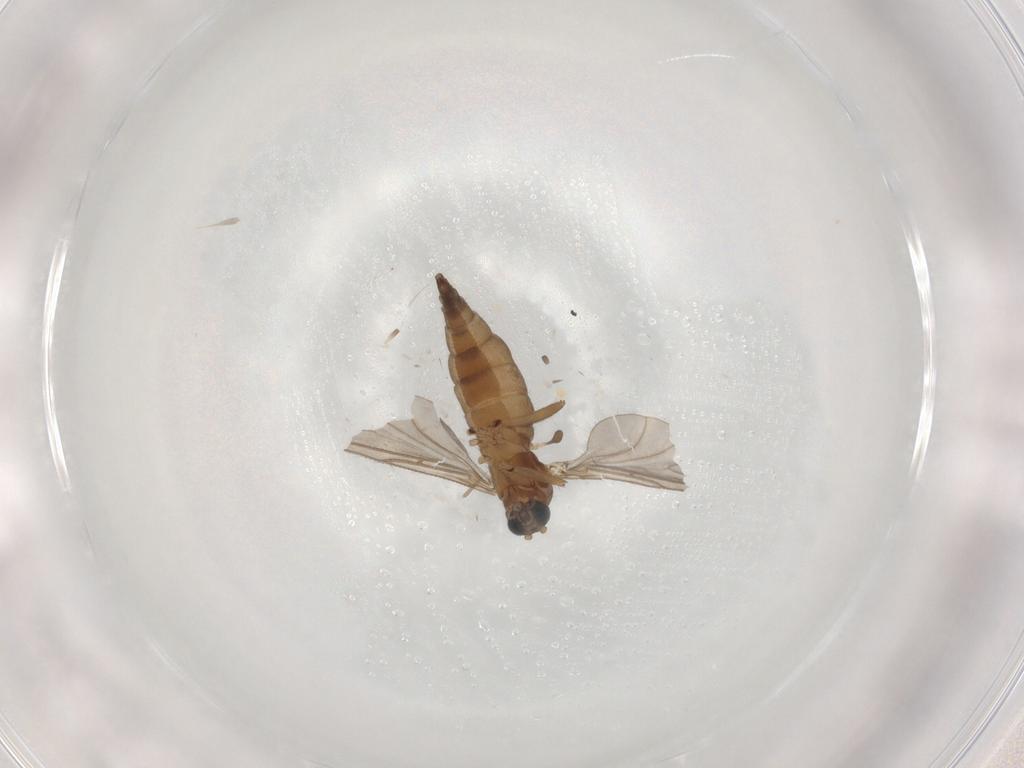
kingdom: Animalia
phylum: Arthropoda
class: Insecta
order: Diptera
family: Sciaridae
